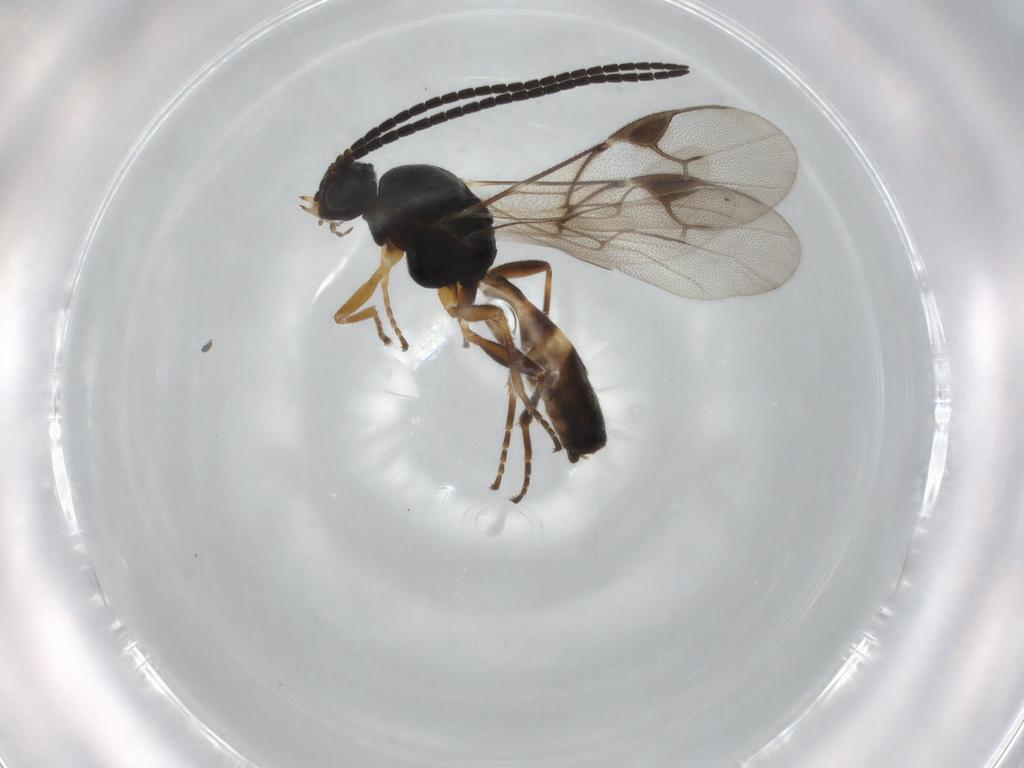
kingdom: Animalia
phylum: Arthropoda
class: Insecta
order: Hymenoptera
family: Braconidae
